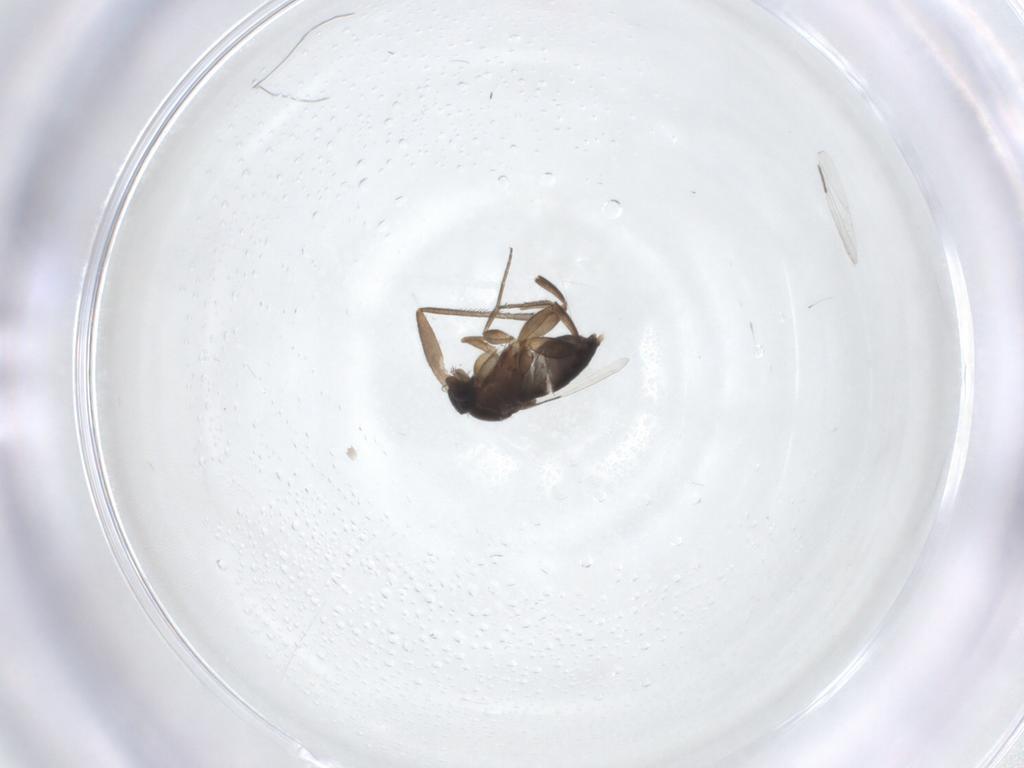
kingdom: Animalia
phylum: Arthropoda
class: Insecta
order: Diptera
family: Phoridae
